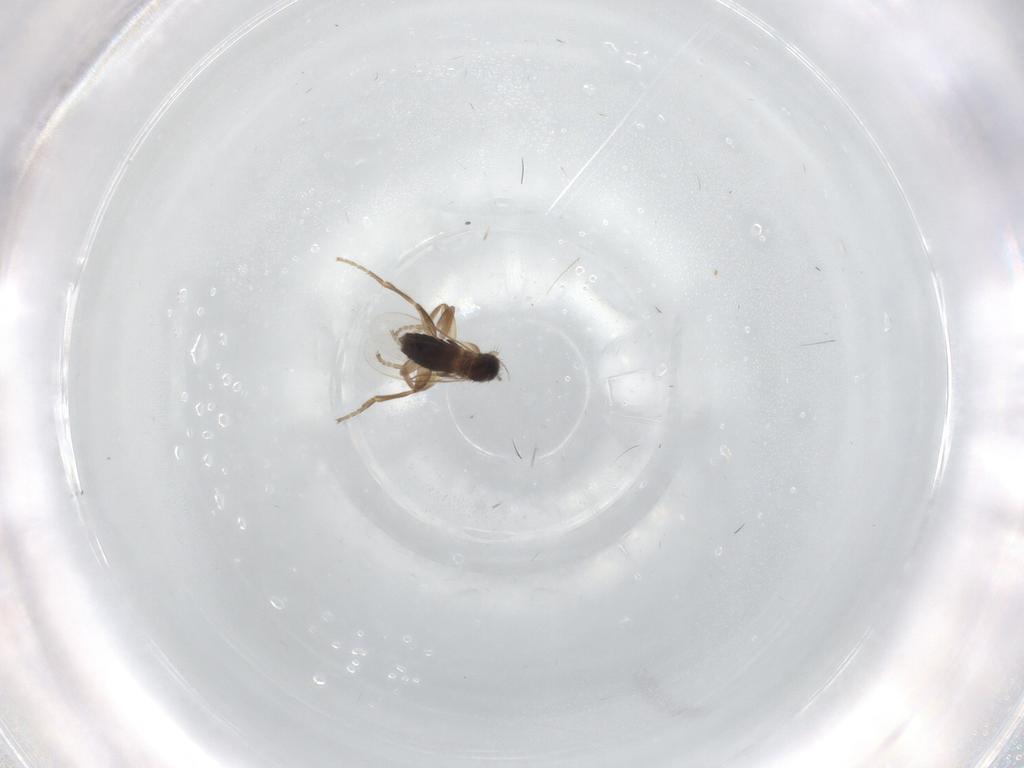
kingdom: Animalia
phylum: Arthropoda
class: Insecta
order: Diptera
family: Phoridae
